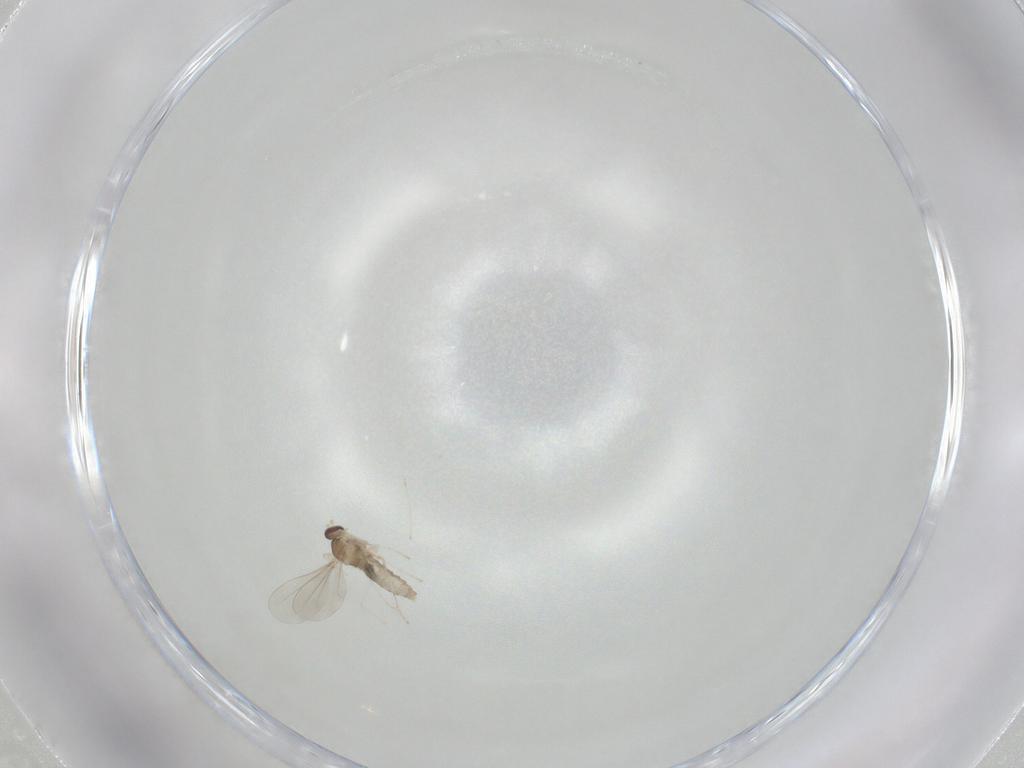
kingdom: Animalia
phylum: Arthropoda
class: Insecta
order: Diptera
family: Cecidomyiidae
